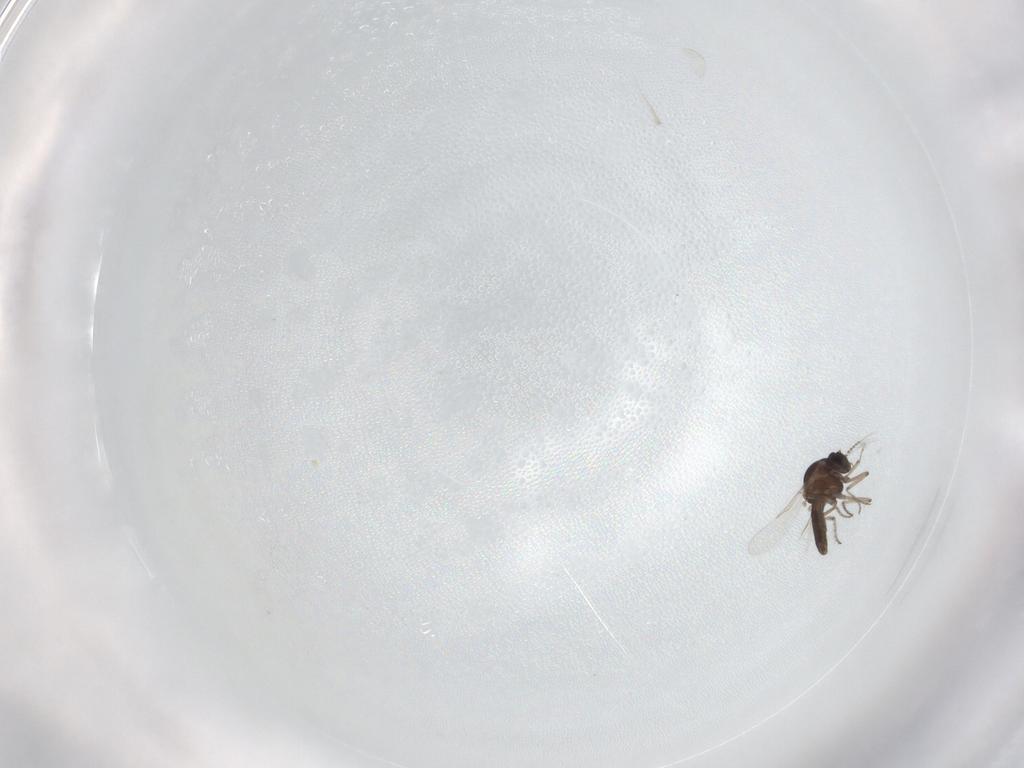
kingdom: Animalia
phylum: Arthropoda
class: Insecta
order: Diptera
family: Dolichopodidae
